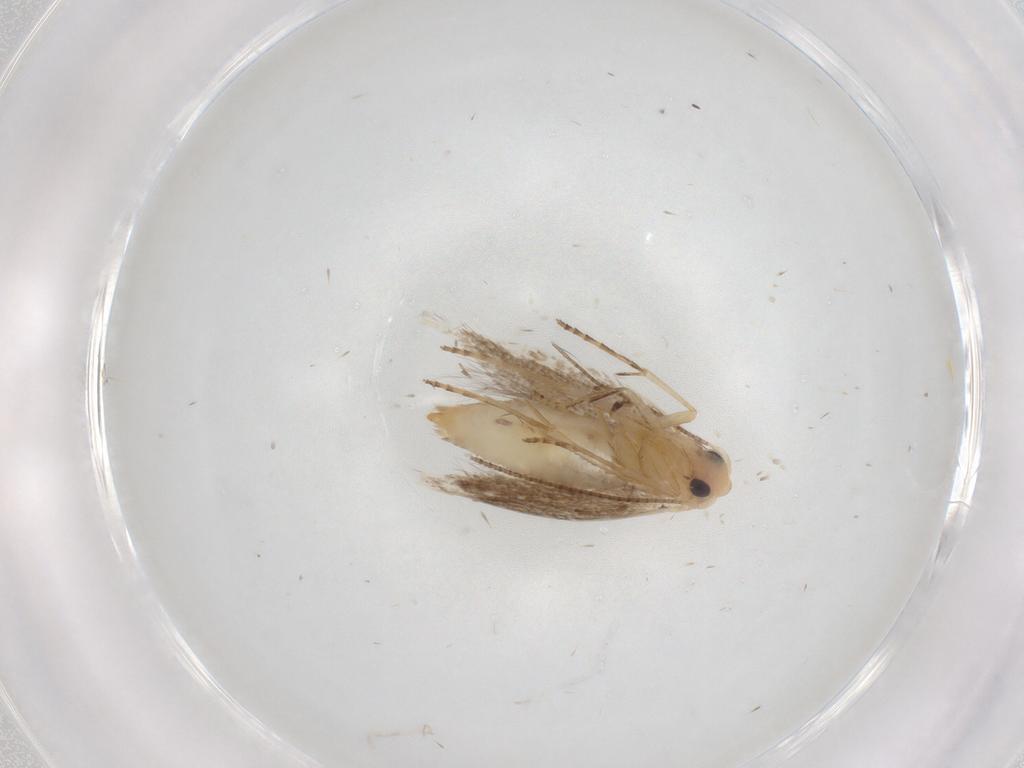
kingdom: Animalia
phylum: Arthropoda
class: Insecta
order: Lepidoptera
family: Tineidae
